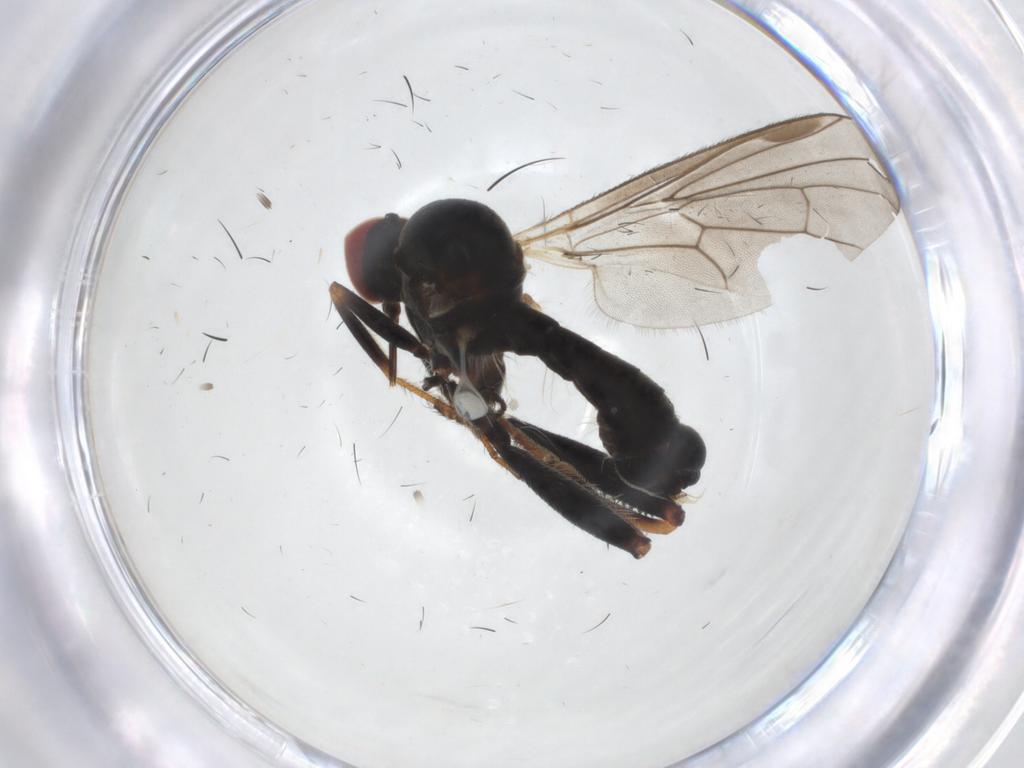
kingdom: Animalia
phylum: Arthropoda
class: Insecta
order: Diptera
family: Hybotidae
